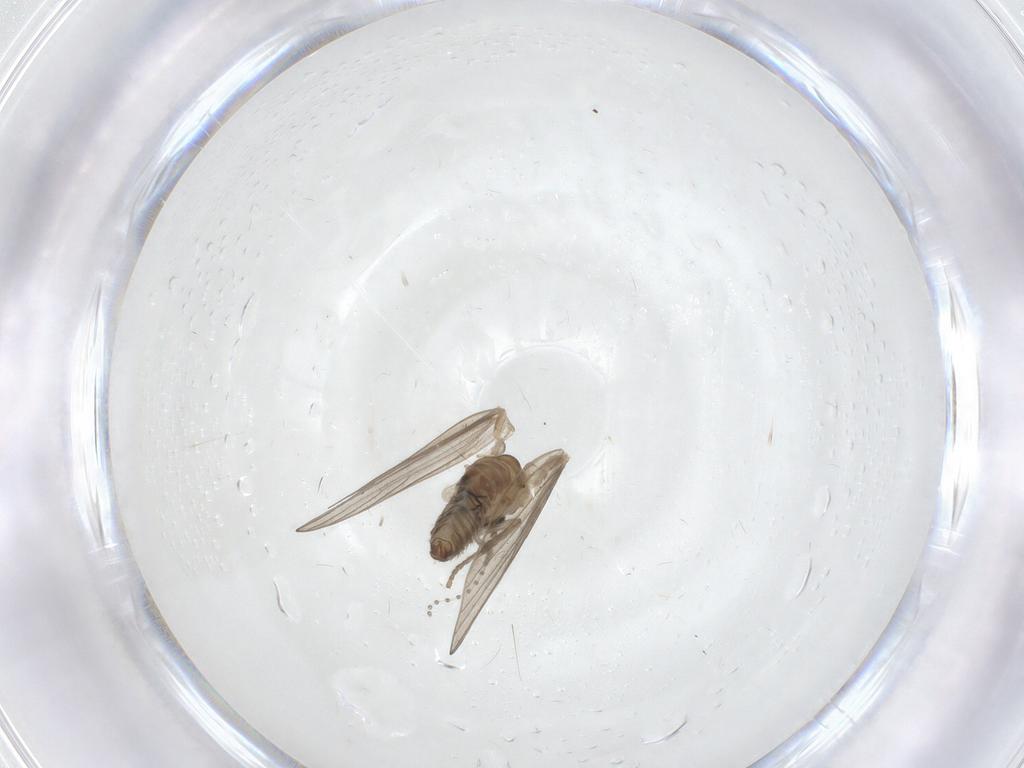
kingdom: Animalia
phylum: Arthropoda
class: Insecta
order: Diptera
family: Psychodidae
